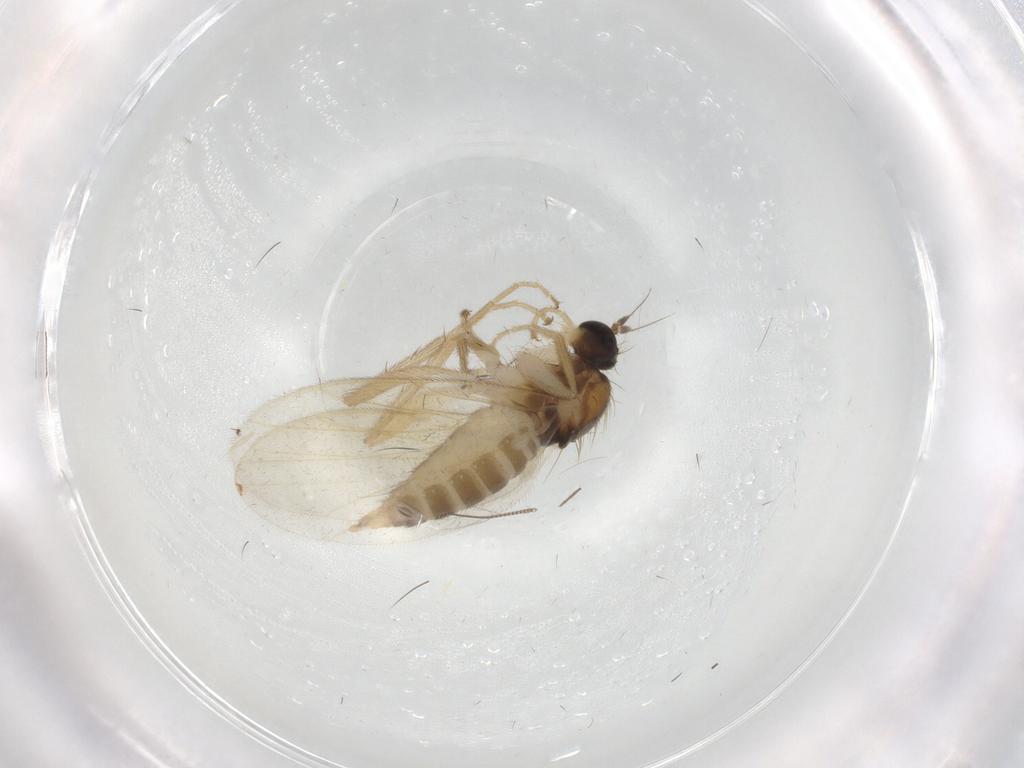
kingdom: Animalia
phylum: Arthropoda
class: Insecta
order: Diptera
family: Hybotidae
